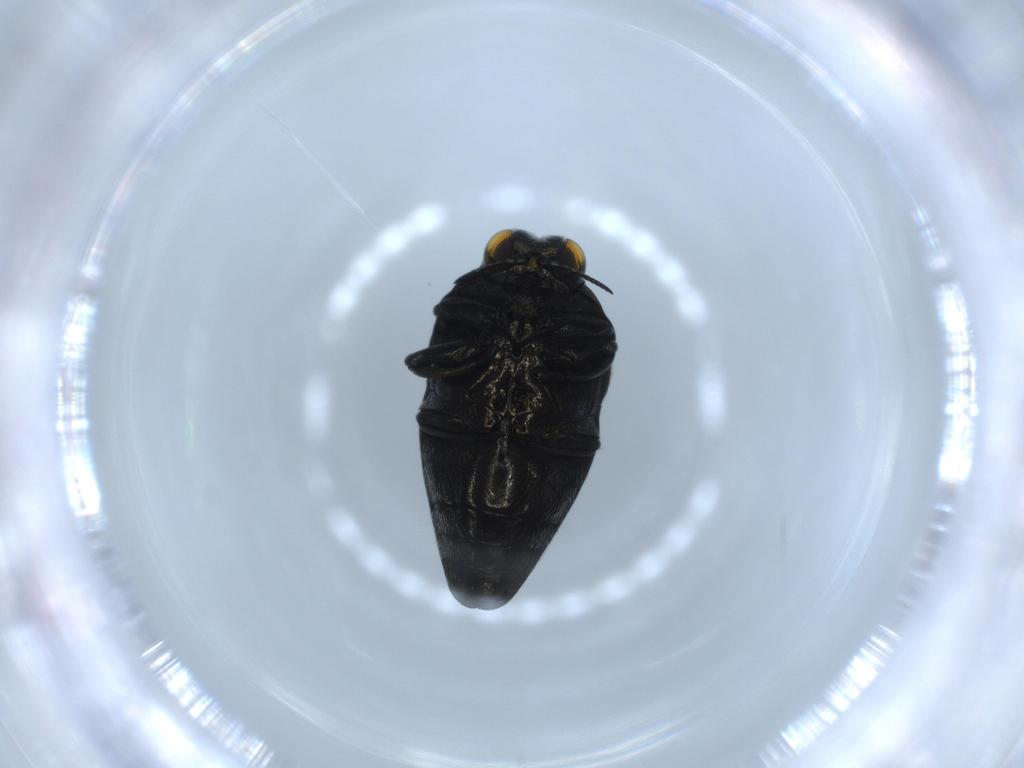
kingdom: Animalia
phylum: Arthropoda
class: Insecta
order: Coleoptera
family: Buprestidae
